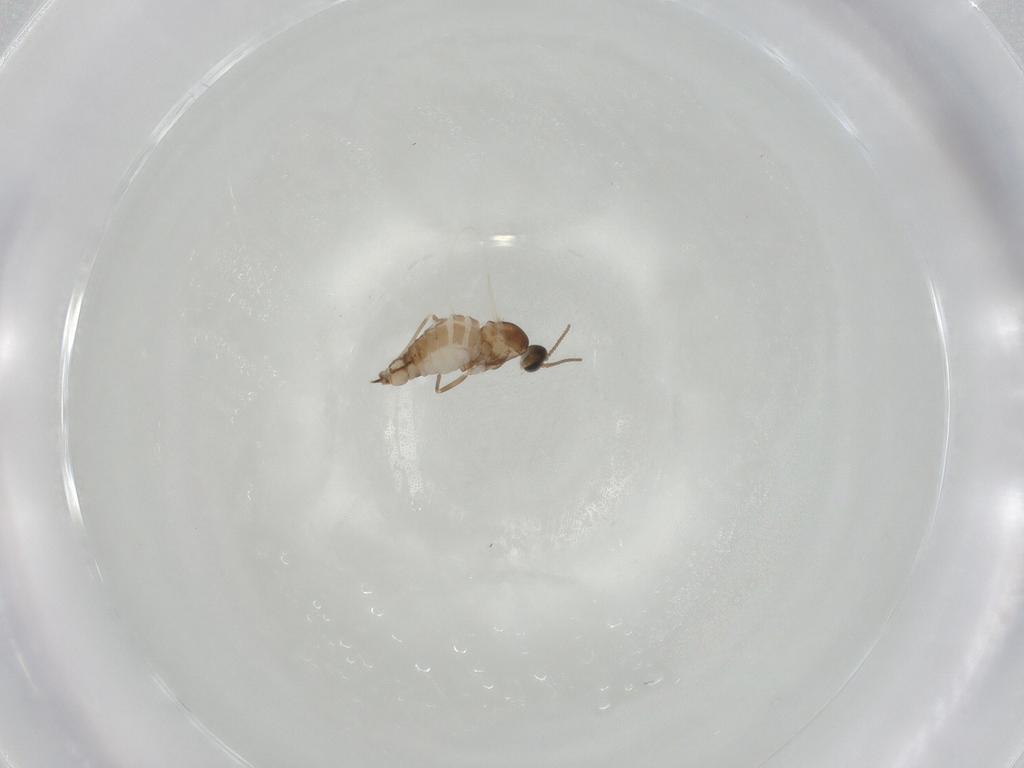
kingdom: Animalia
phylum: Arthropoda
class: Insecta
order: Diptera
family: Cecidomyiidae
